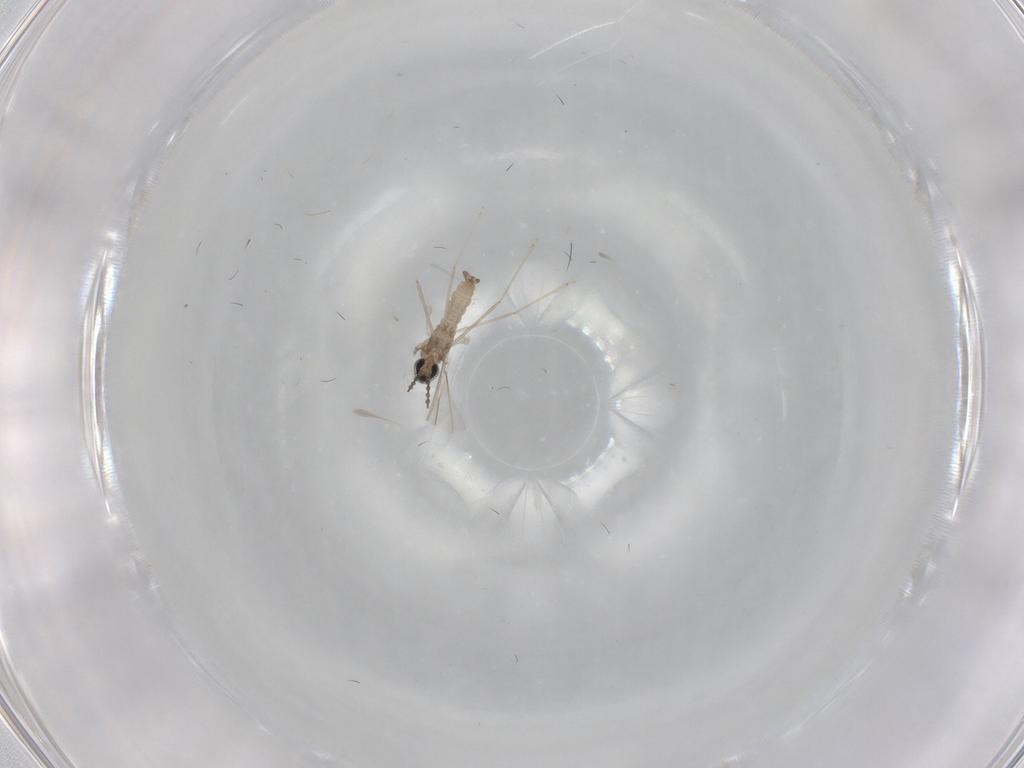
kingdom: Animalia
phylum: Arthropoda
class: Insecta
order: Diptera
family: Cecidomyiidae
